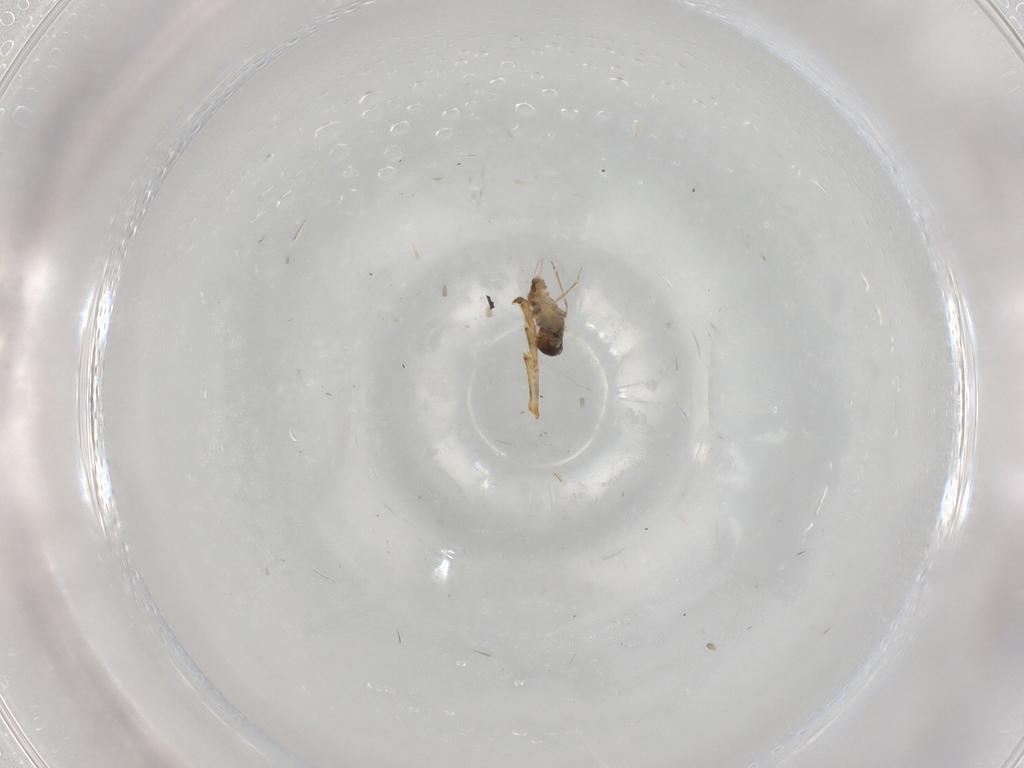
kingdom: Animalia
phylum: Arthropoda
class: Insecta
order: Diptera
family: Cecidomyiidae
